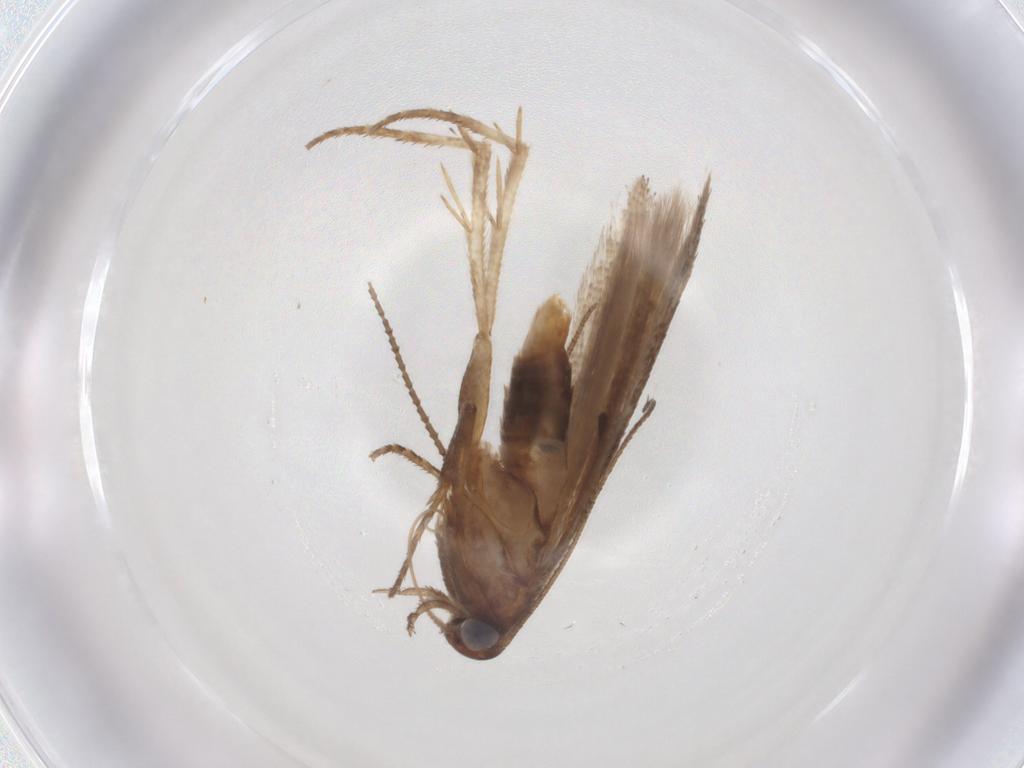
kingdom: Animalia
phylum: Arthropoda
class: Insecta
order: Lepidoptera
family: Gelechiidae
